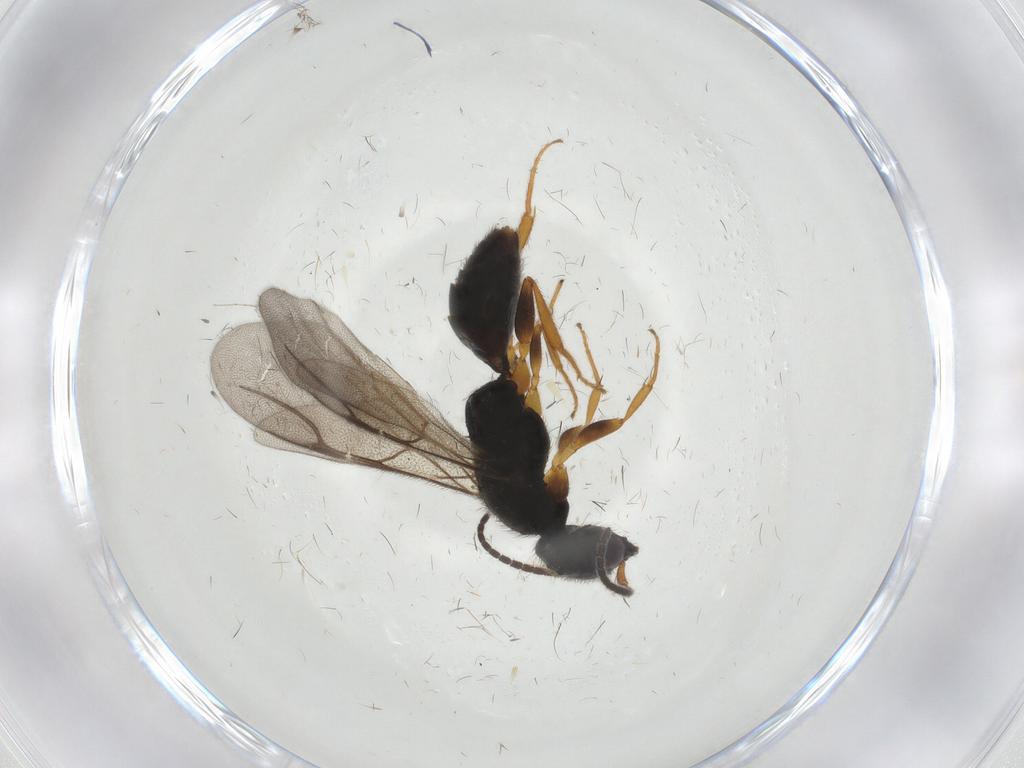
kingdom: Animalia
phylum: Arthropoda
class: Insecta
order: Hymenoptera
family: Bethylidae
